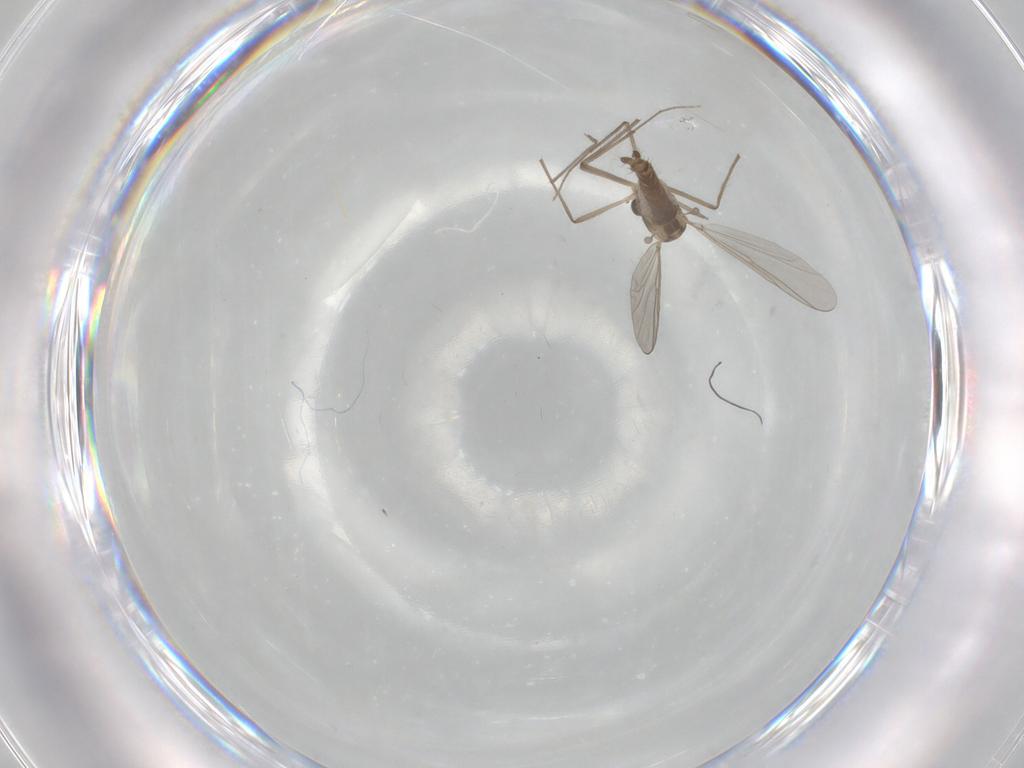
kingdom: Animalia
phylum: Arthropoda
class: Insecta
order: Diptera
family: Chironomidae
